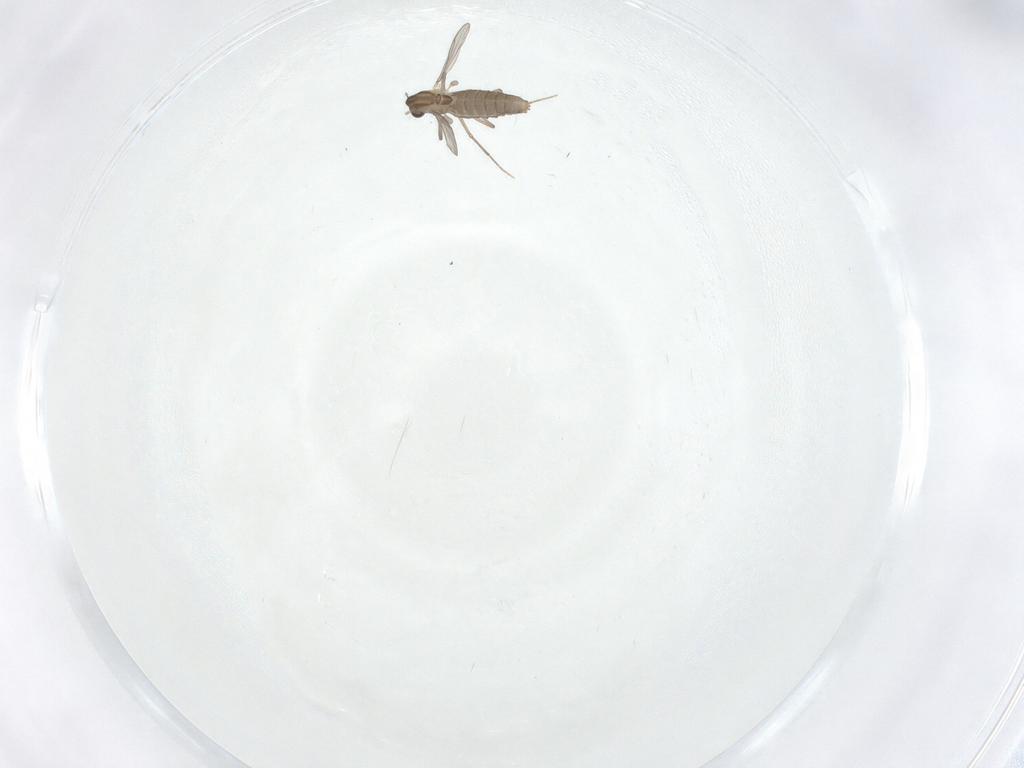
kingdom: Animalia
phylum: Arthropoda
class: Insecta
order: Diptera
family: Chironomidae
